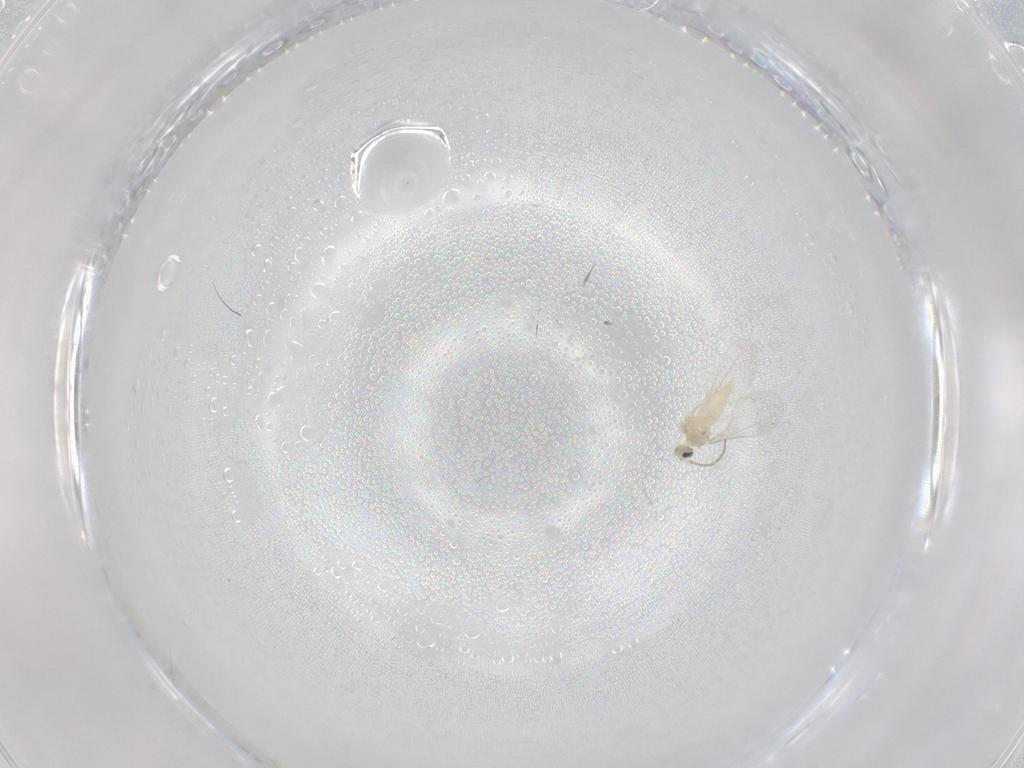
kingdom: Animalia
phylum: Arthropoda
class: Insecta
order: Diptera
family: Cecidomyiidae
